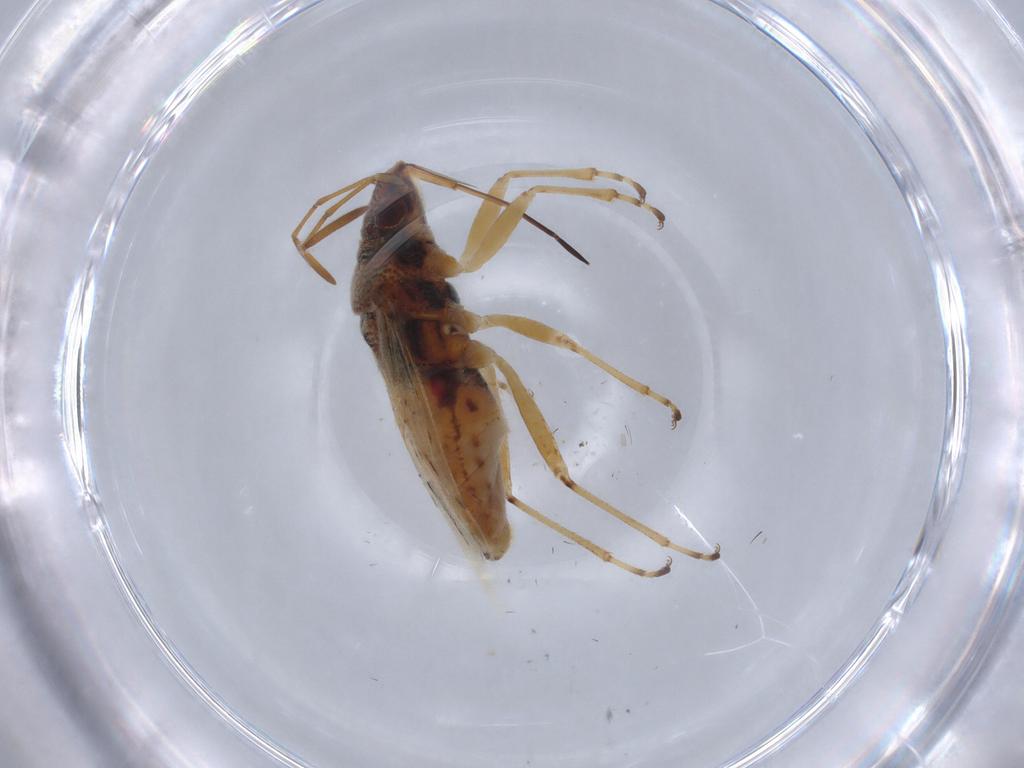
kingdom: Animalia
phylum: Arthropoda
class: Insecta
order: Hemiptera
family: Lygaeidae
